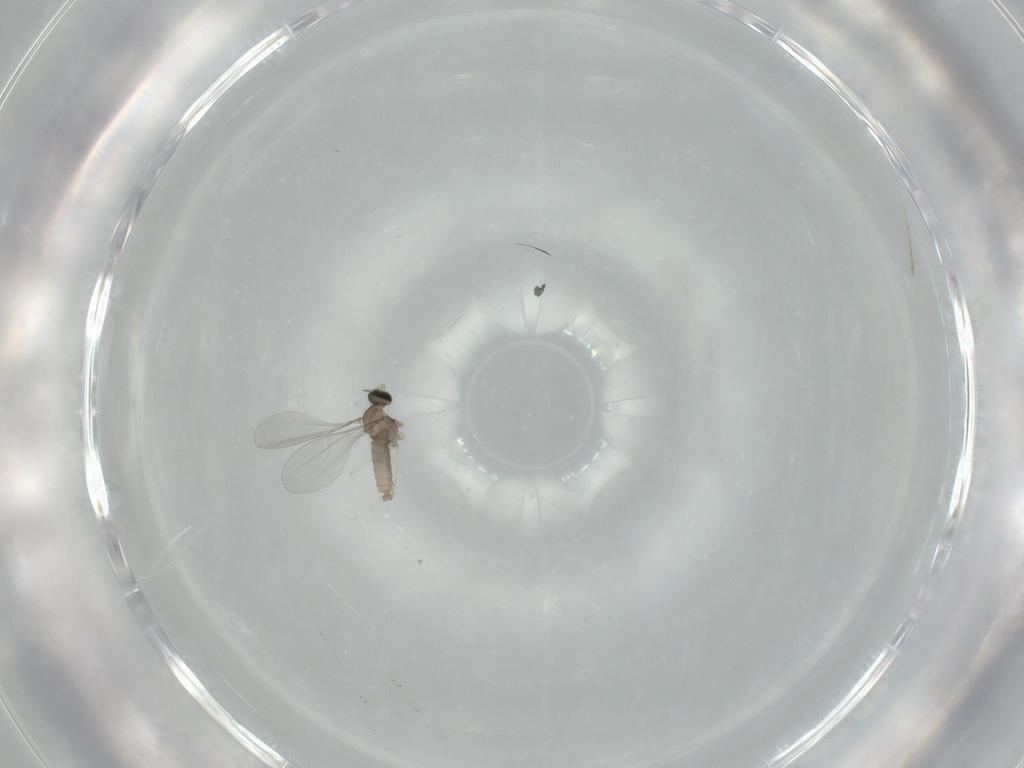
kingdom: Animalia
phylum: Arthropoda
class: Insecta
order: Diptera
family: Cecidomyiidae
